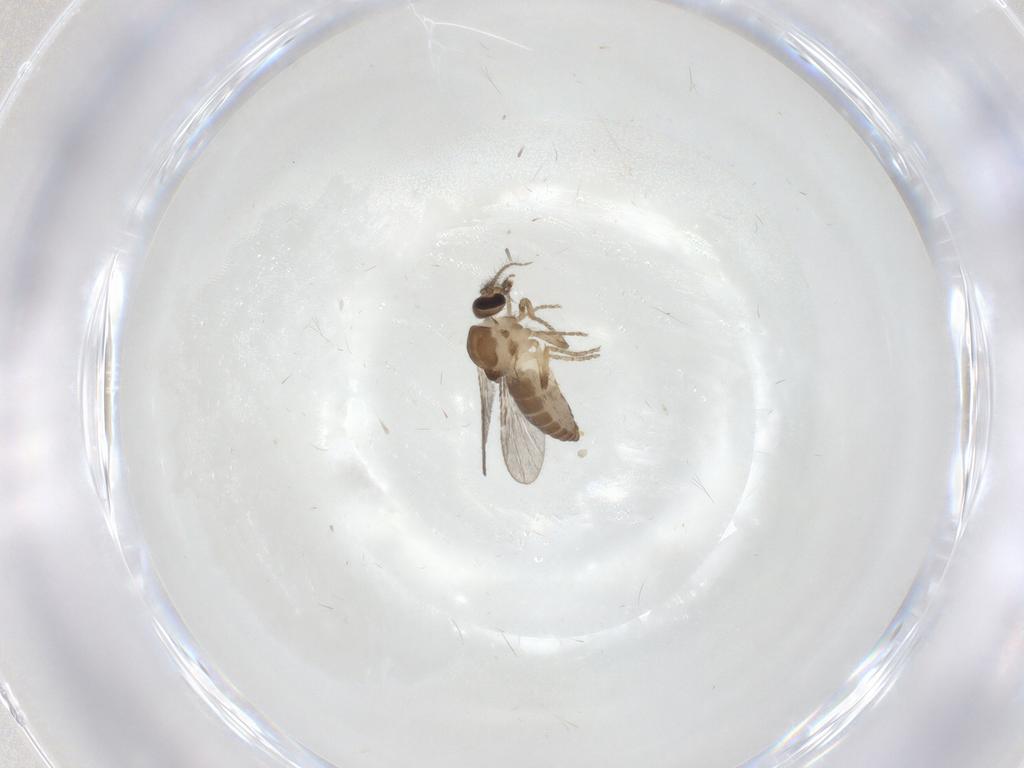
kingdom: Animalia
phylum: Arthropoda
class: Insecta
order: Diptera
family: Ceratopogonidae
